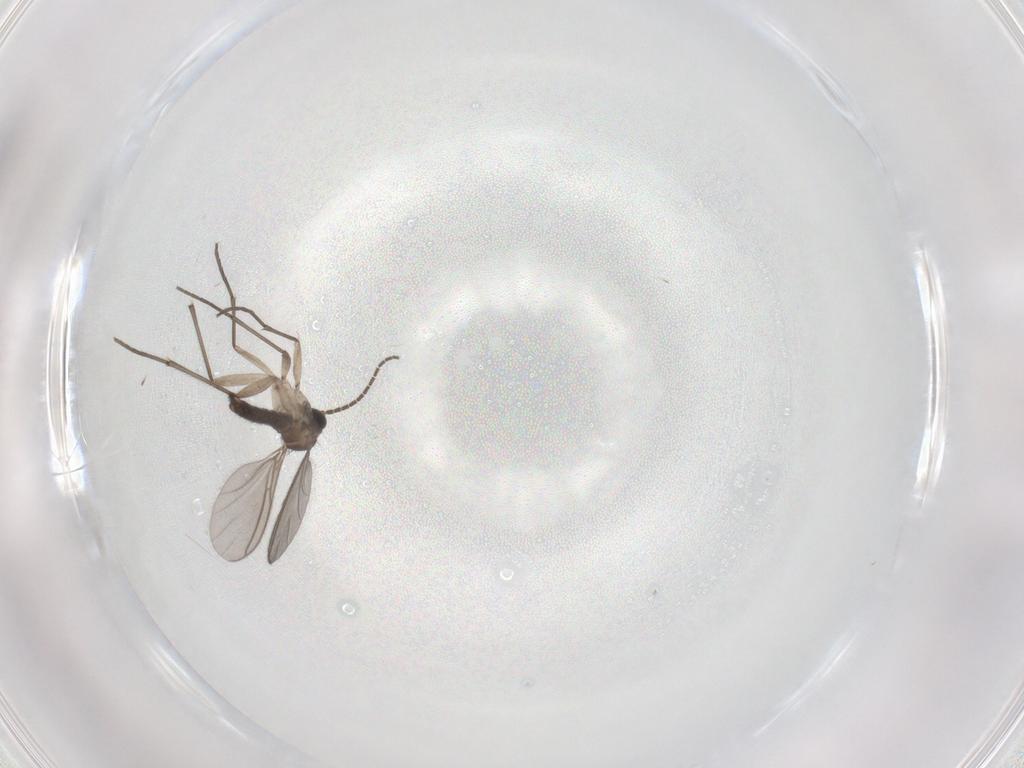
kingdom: Animalia
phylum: Arthropoda
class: Insecta
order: Diptera
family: Sciaridae
